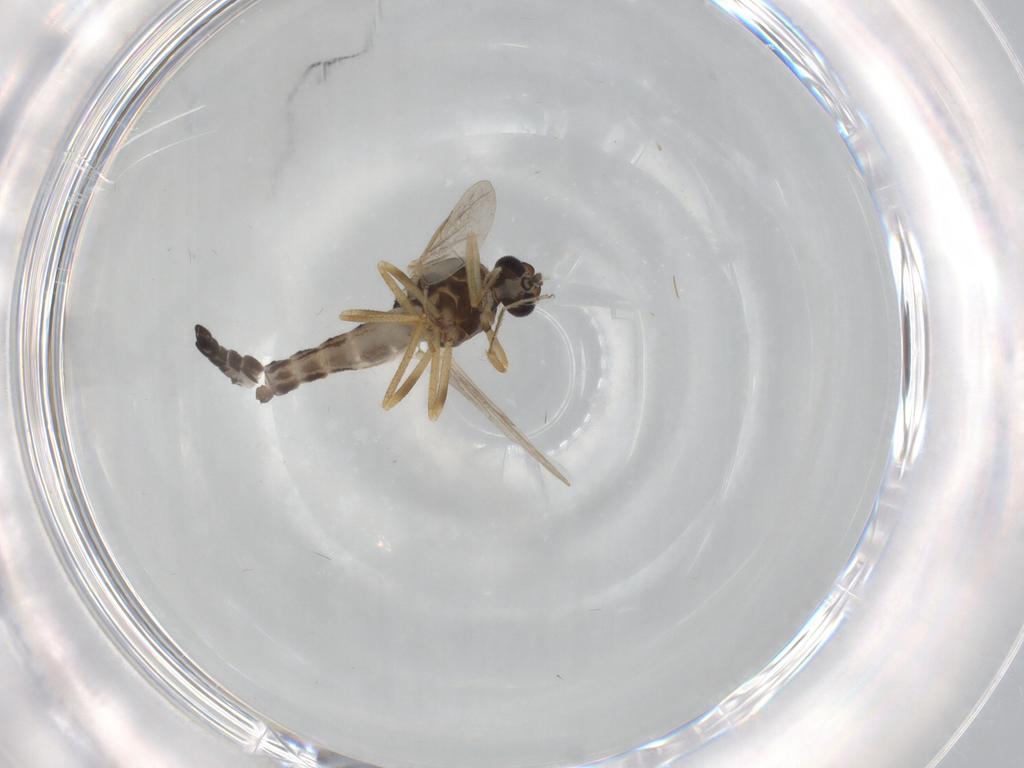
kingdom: Animalia
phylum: Arthropoda
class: Insecta
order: Diptera
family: Ceratopogonidae
